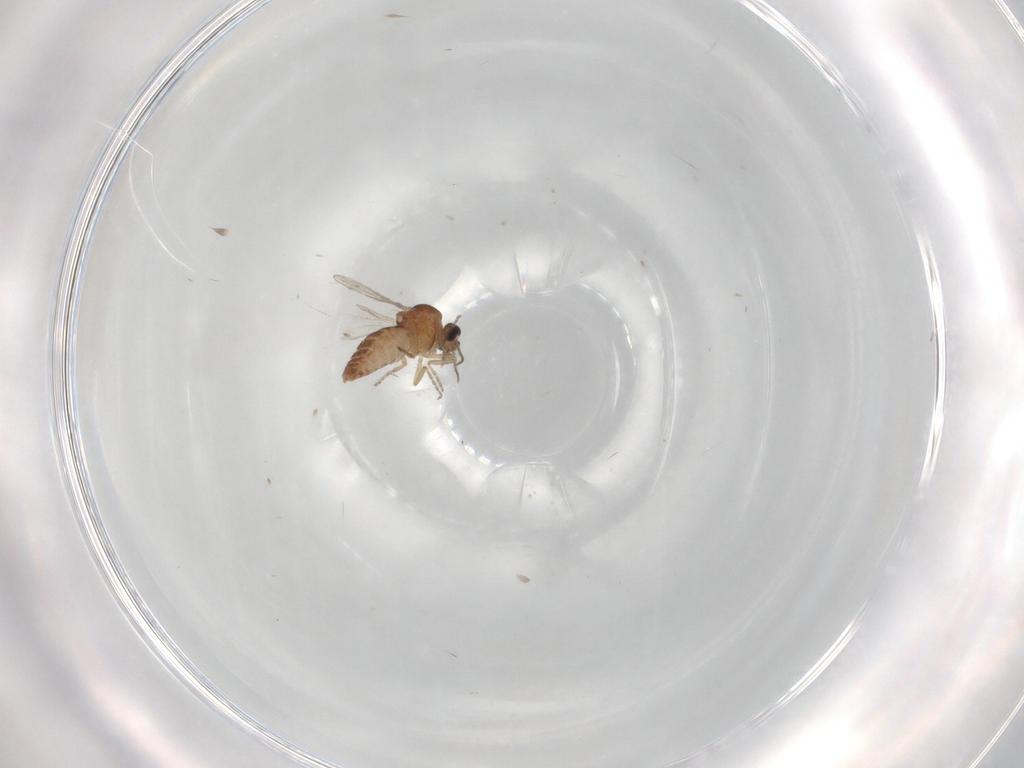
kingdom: Animalia
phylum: Arthropoda
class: Insecta
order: Diptera
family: Ceratopogonidae
